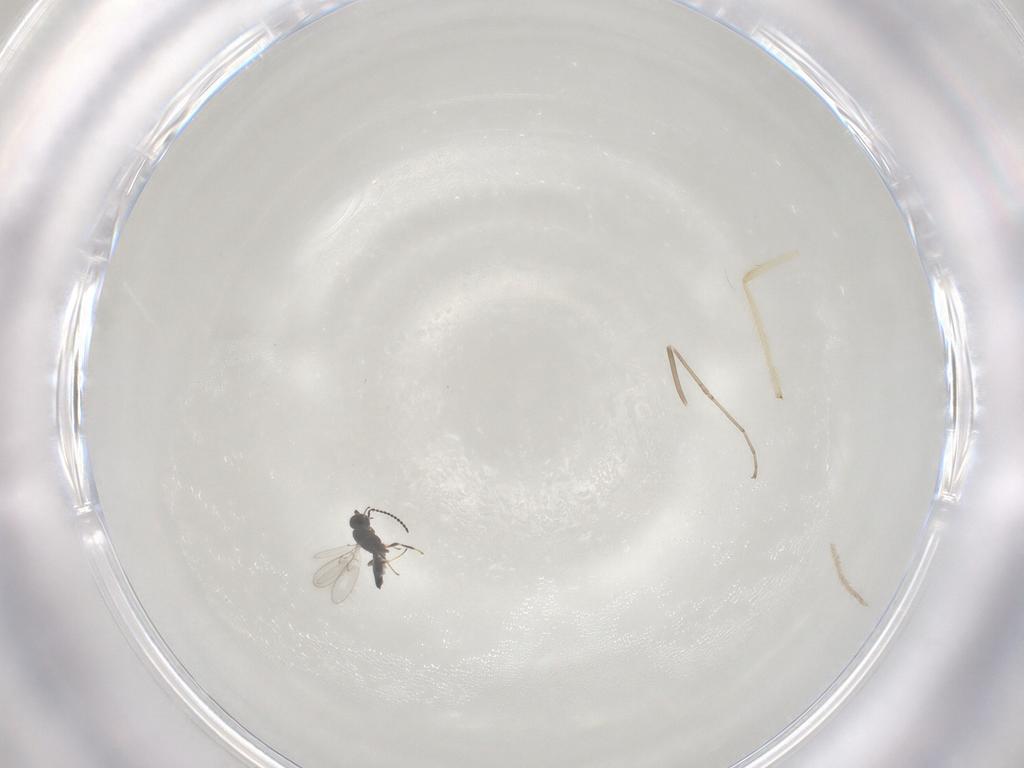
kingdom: Animalia
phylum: Arthropoda
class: Insecta
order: Hymenoptera
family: Scelionidae
